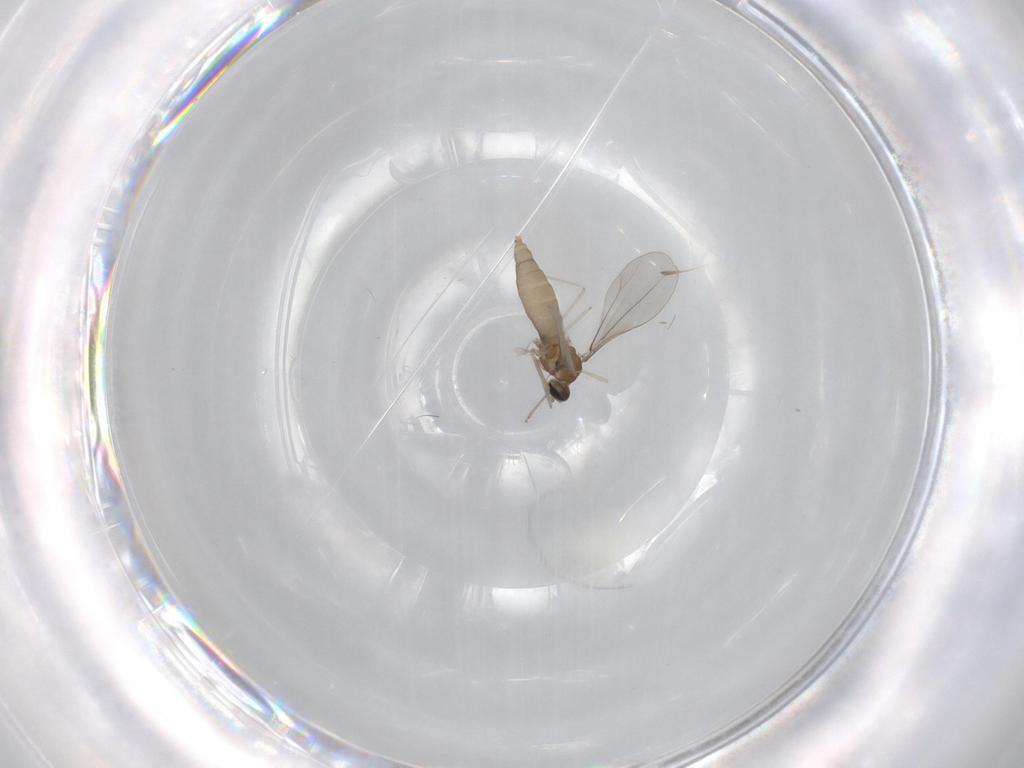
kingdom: Animalia
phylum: Arthropoda
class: Insecta
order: Diptera
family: Cecidomyiidae
